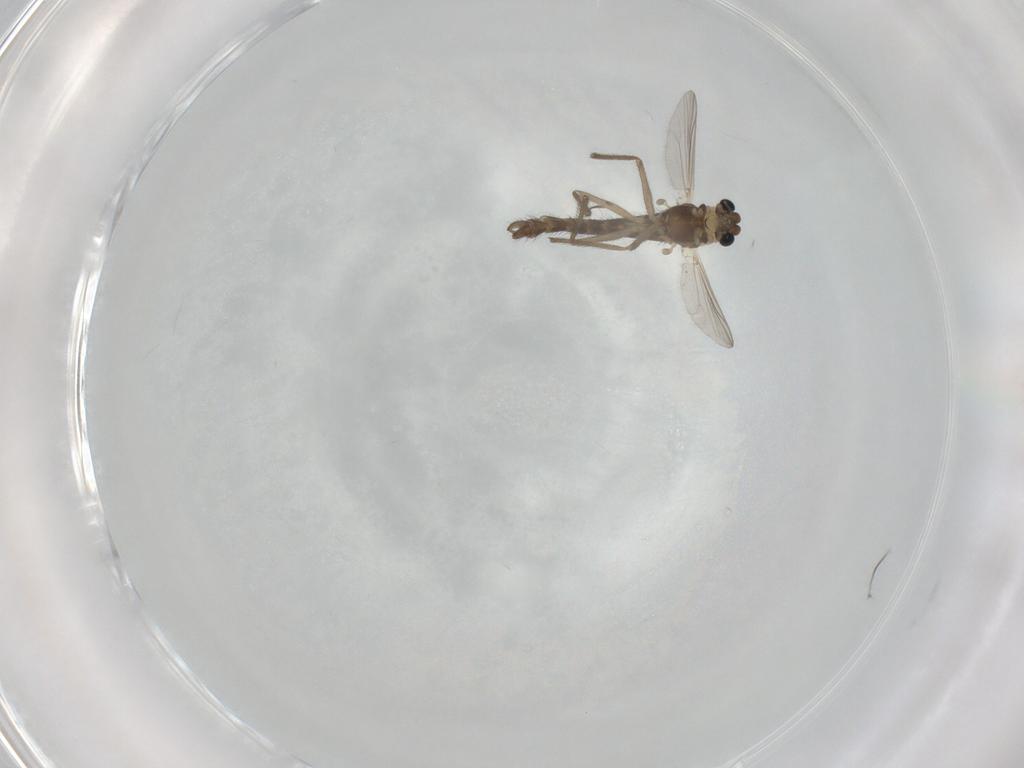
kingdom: Animalia
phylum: Arthropoda
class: Insecta
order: Diptera
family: Chironomidae
